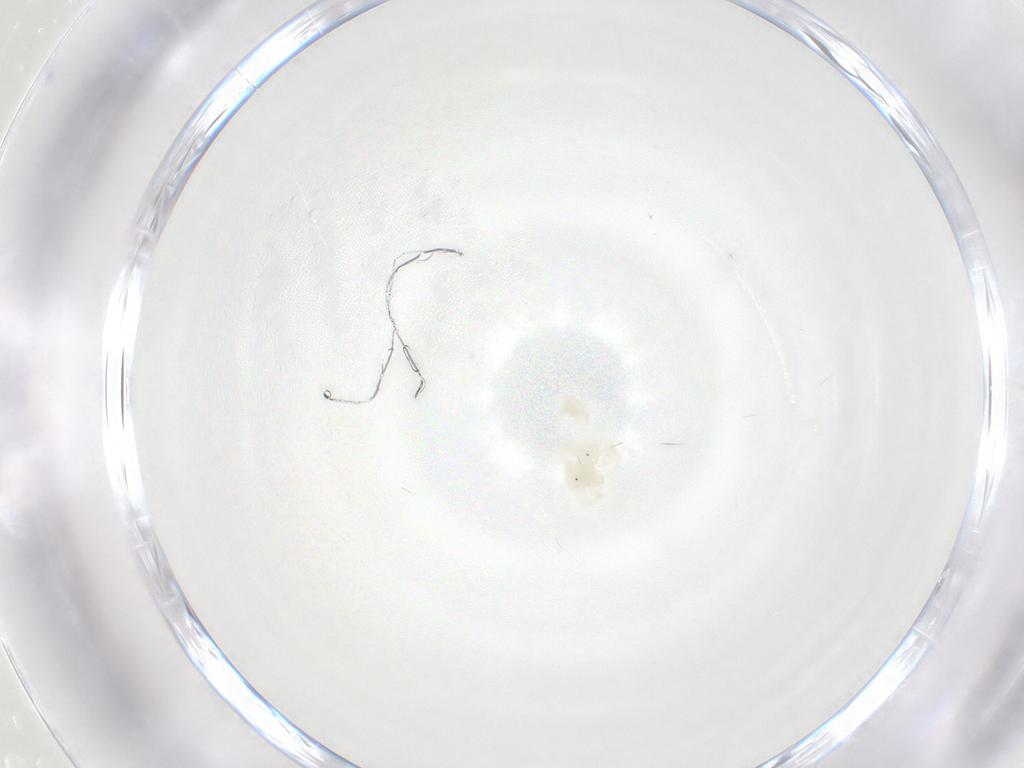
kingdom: Animalia
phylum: Arthropoda
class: Arachnida
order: Trombidiformes
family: Anystidae
